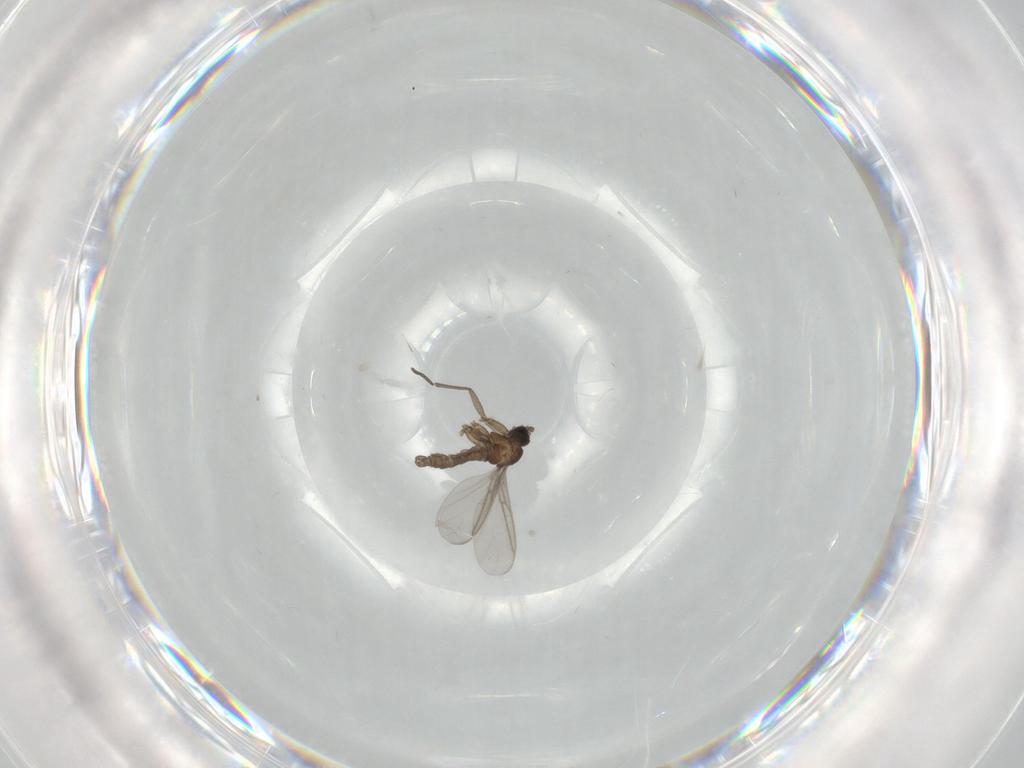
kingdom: Animalia
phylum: Arthropoda
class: Insecta
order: Diptera
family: Sciaridae
